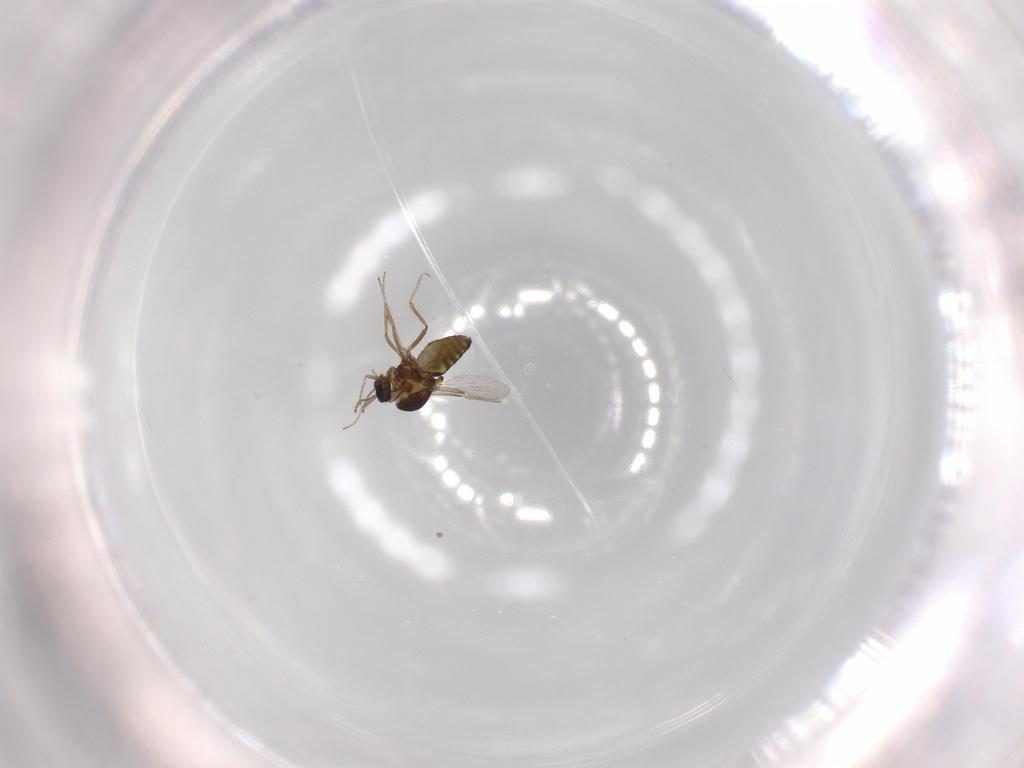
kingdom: Animalia
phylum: Arthropoda
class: Insecta
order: Diptera
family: Ceratopogonidae
